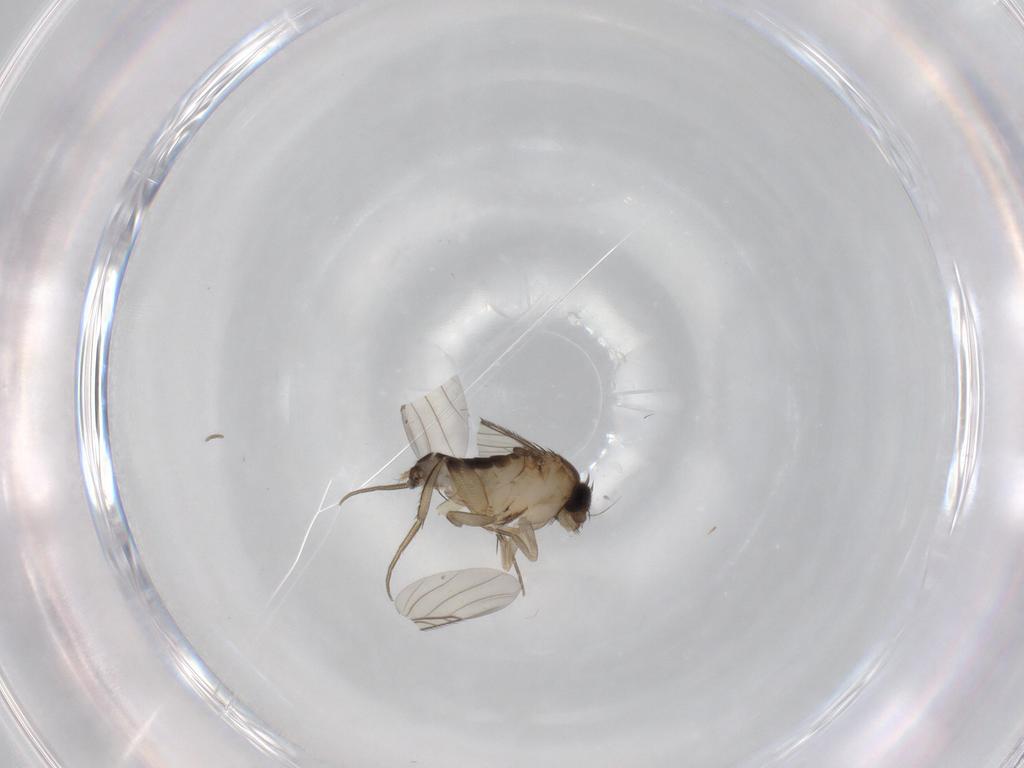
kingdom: Animalia
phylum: Arthropoda
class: Insecta
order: Diptera
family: Phoridae
